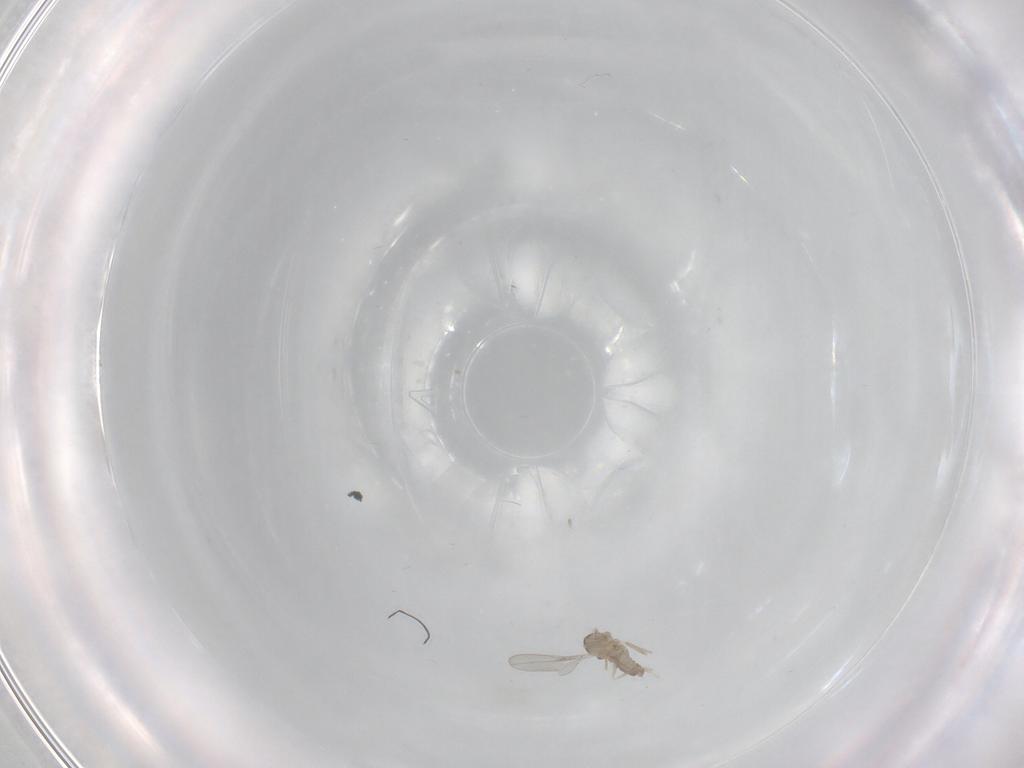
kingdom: Animalia
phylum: Arthropoda
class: Insecta
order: Diptera
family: Cecidomyiidae
